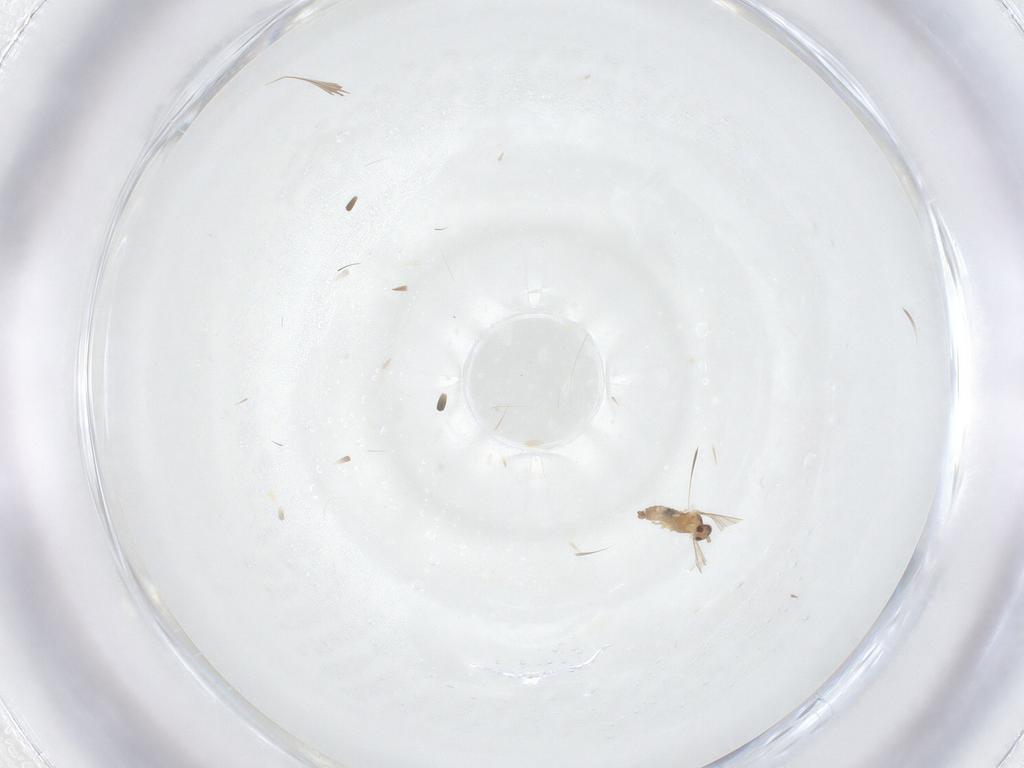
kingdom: Animalia
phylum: Arthropoda
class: Insecta
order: Diptera
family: Cecidomyiidae
